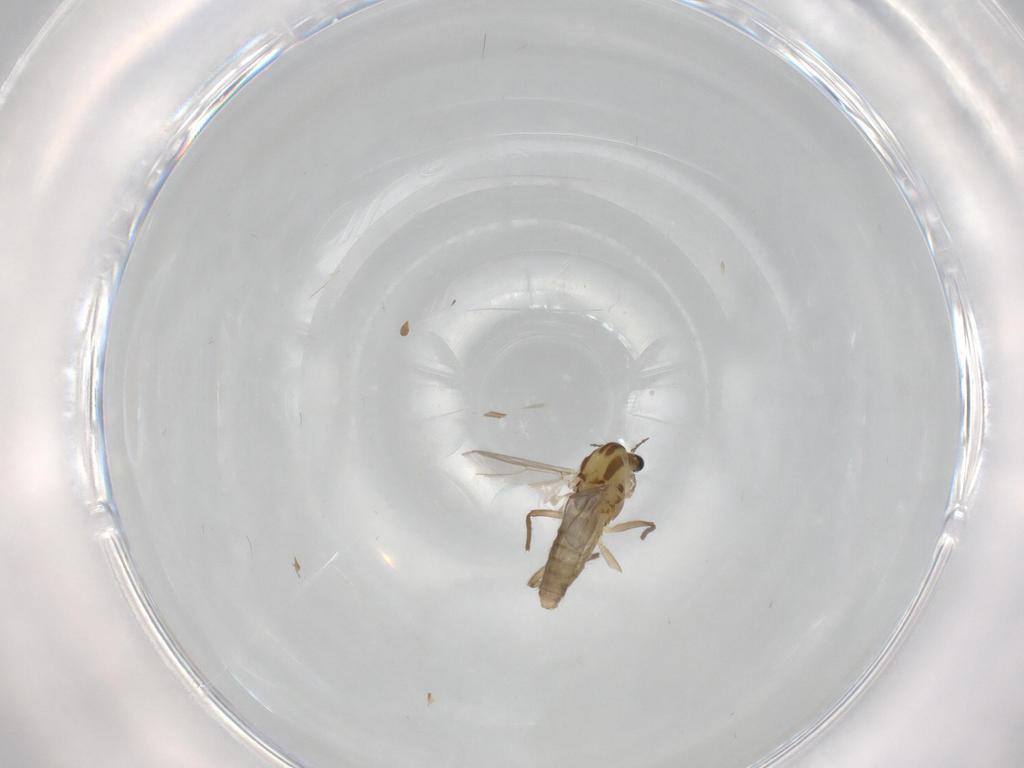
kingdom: Animalia
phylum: Arthropoda
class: Insecta
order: Diptera
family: Chironomidae
